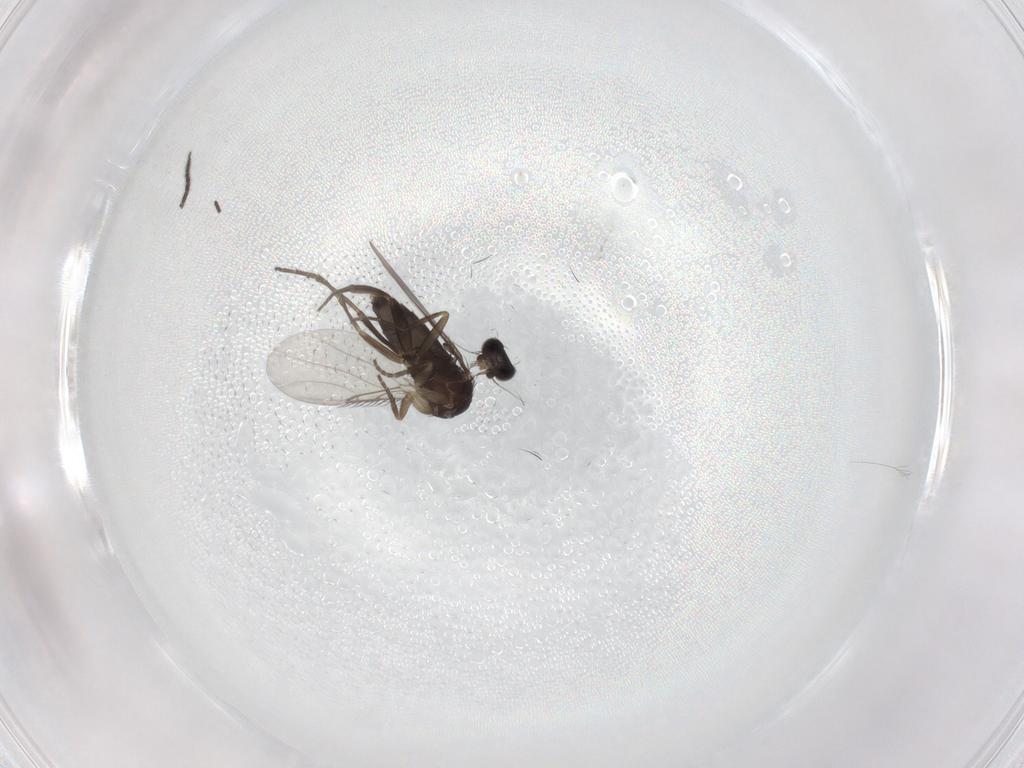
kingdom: Animalia
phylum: Arthropoda
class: Insecta
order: Diptera
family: Phoridae
